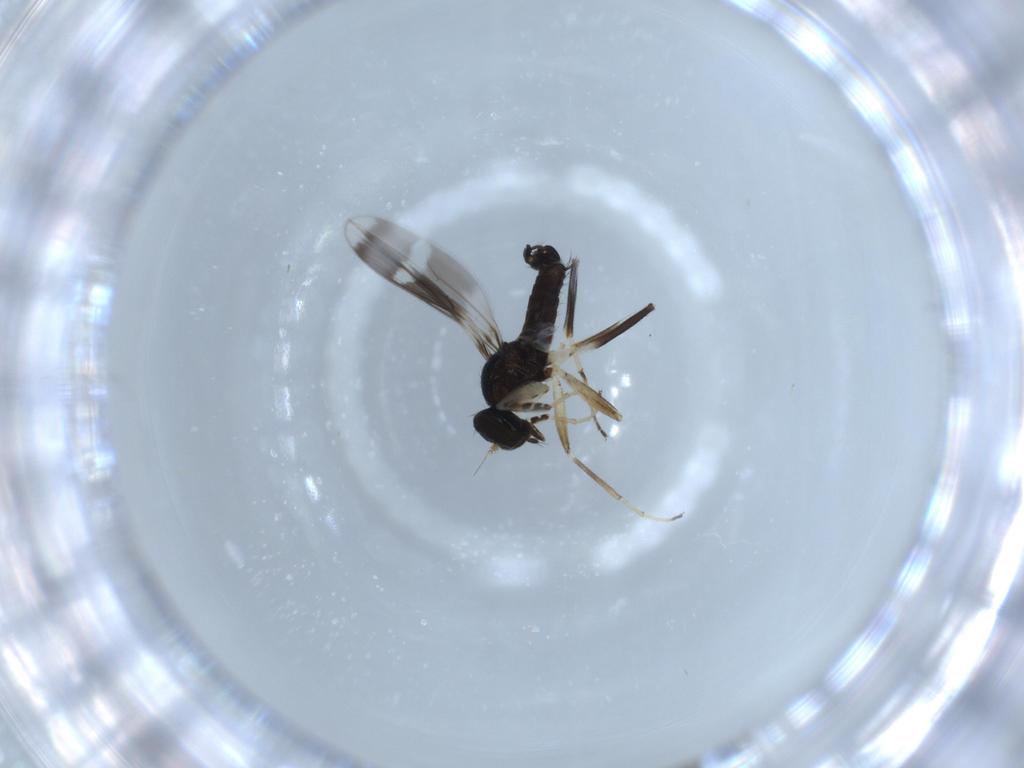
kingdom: Animalia
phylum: Arthropoda
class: Insecta
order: Diptera
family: Hybotidae
